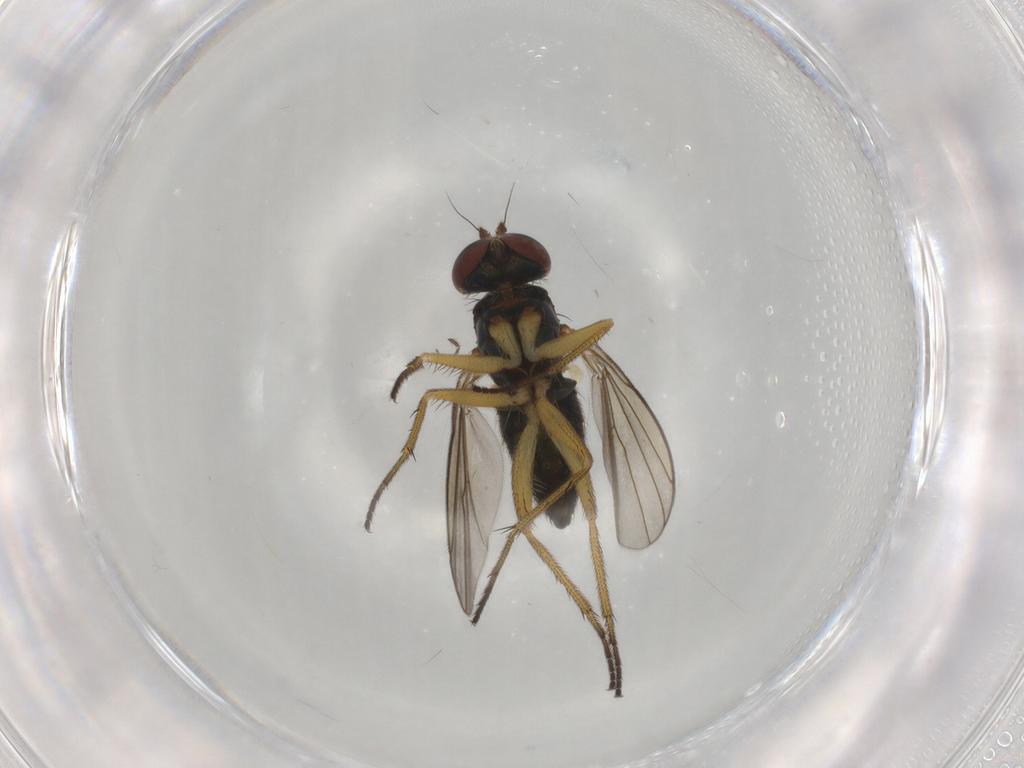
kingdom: Animalia
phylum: Arthropoda
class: Insecta
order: Diptera
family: Dolichopodidae
